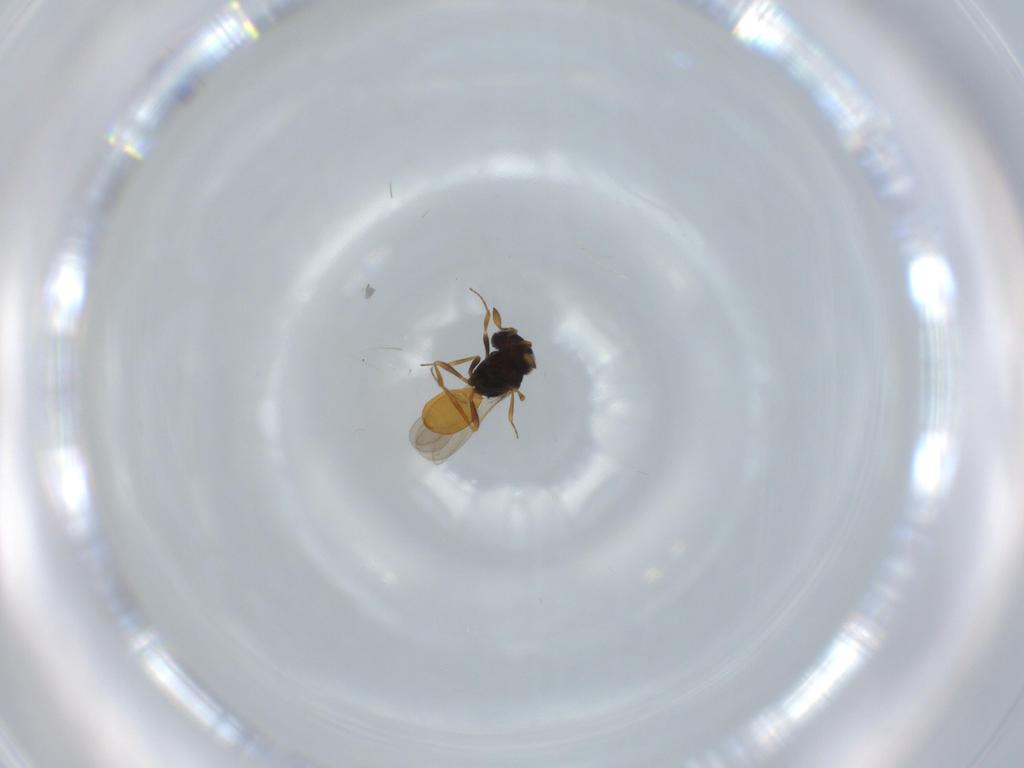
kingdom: Animalia
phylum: Arthropoda
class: Insecta
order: Hymenoptera
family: Scelionidae
